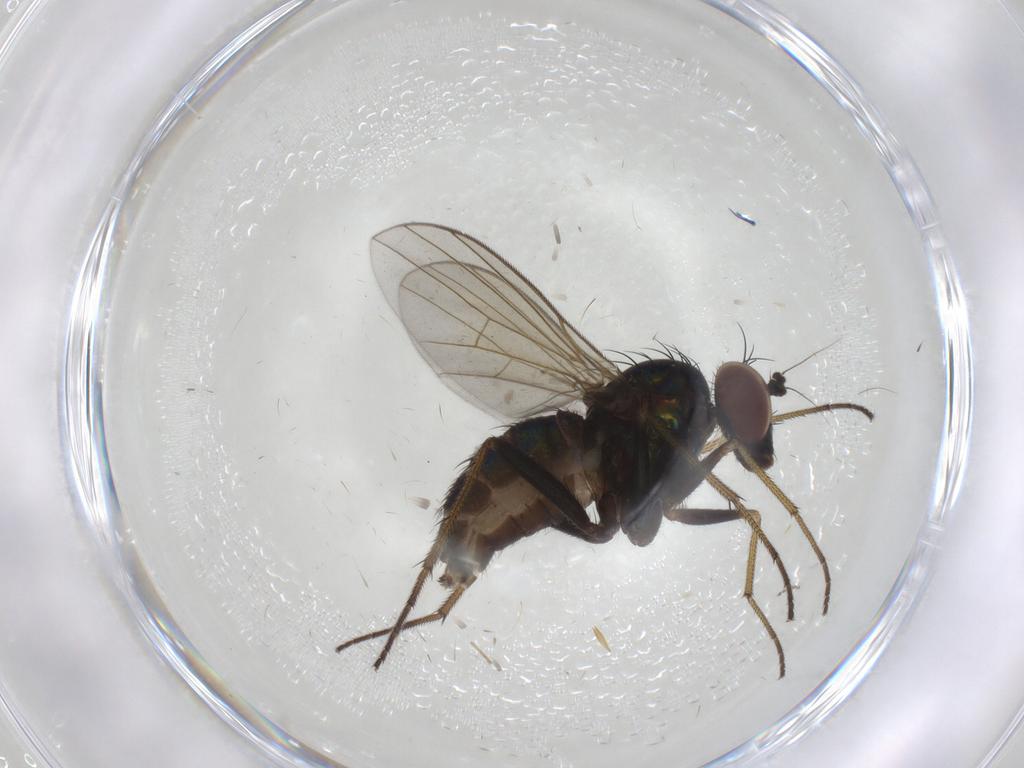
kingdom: Animalia
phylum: Arthropoda
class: Insecta
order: Diptera
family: Dolichopodidae
